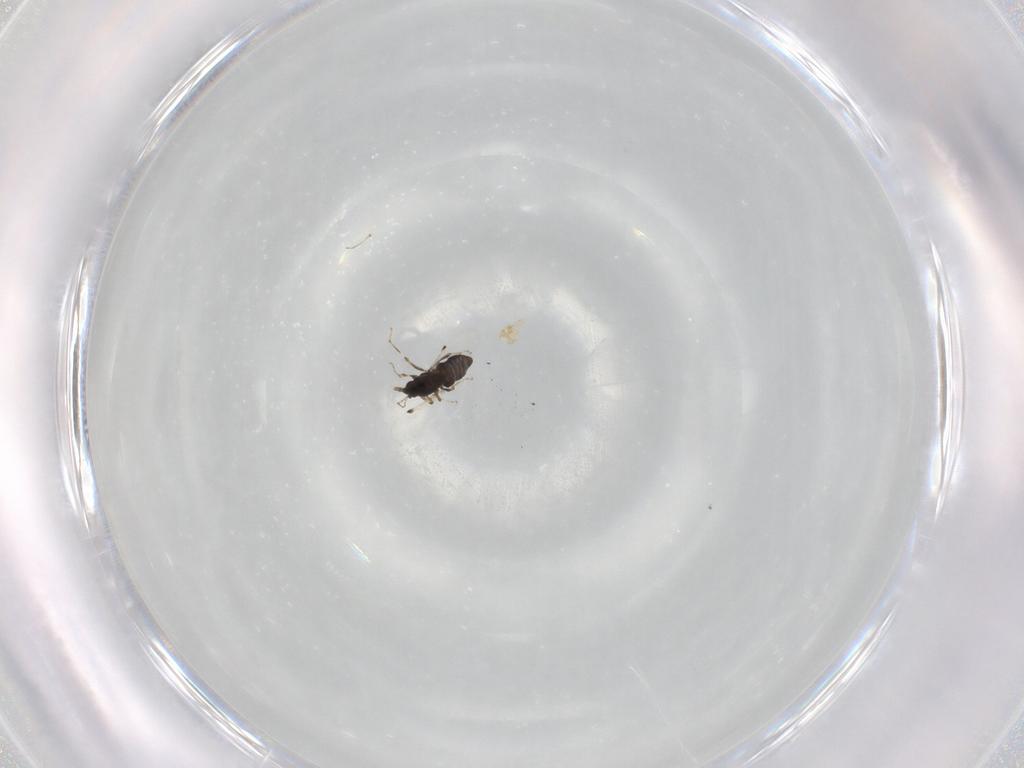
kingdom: Animalia
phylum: Arthropoda
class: Insecta
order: Diptera
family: Ceratopogonidae
